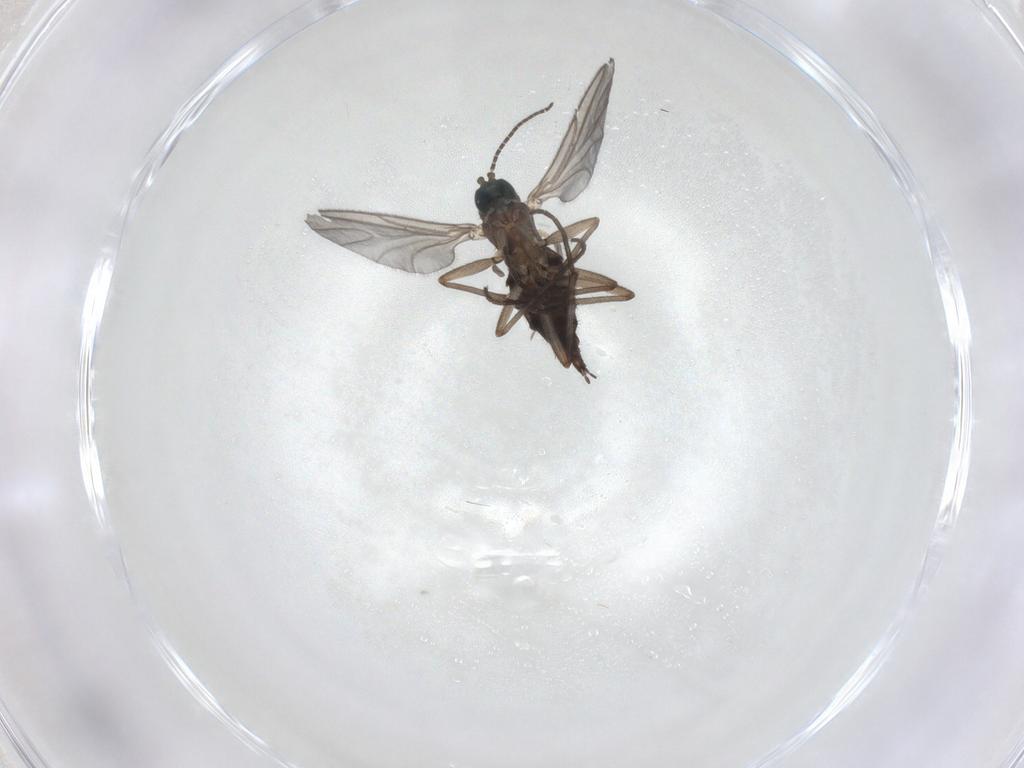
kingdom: Animalia
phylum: Arthropoda
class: Insecta
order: Diptera
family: Sciaridae
